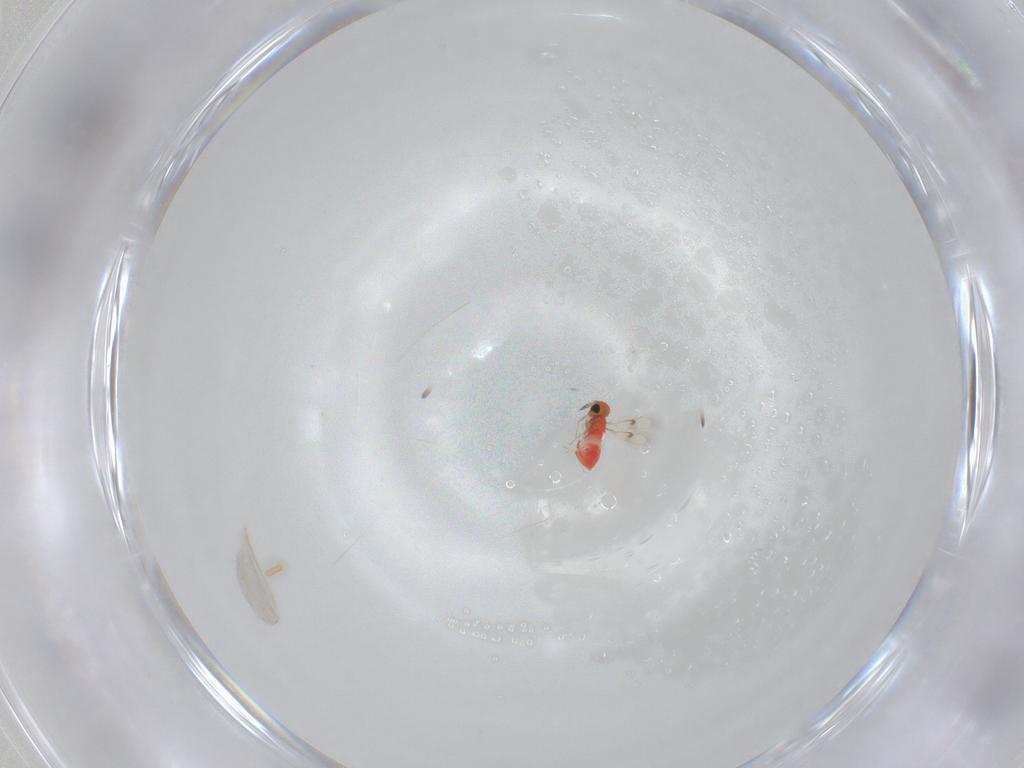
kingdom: Animalia
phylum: Arthropoda
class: Insecta
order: Hymenoptera
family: Trichogrammatidae
